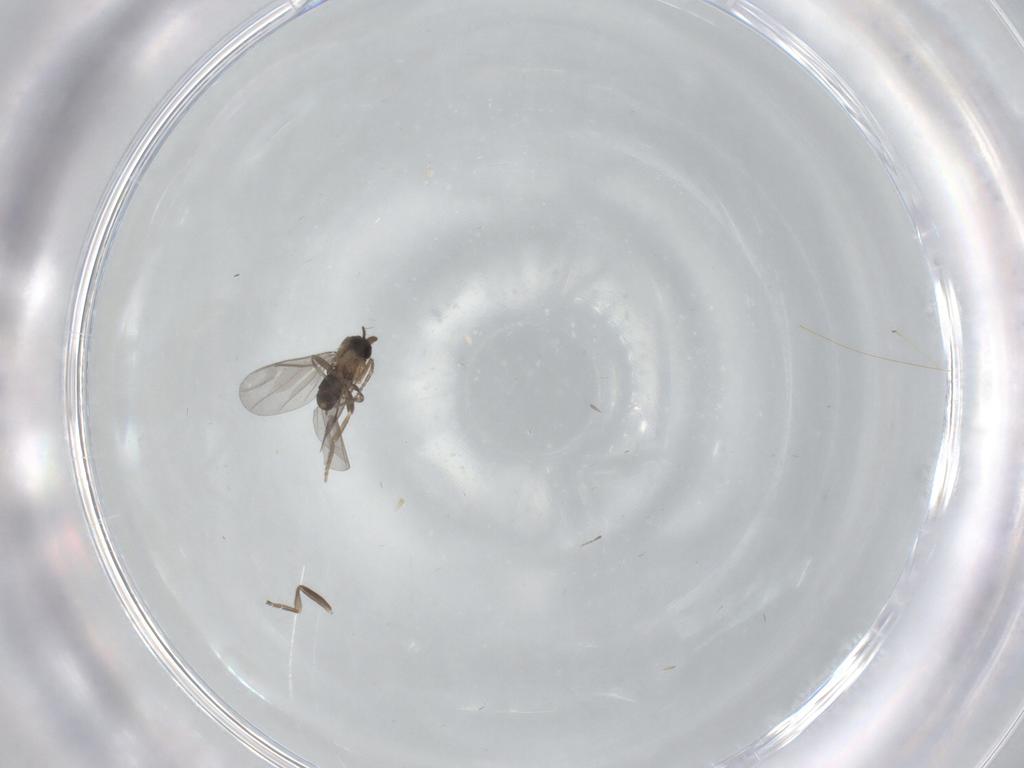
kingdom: Animalia
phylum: Arthropoda
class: Insecta
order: Diptera
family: Chironomidae
